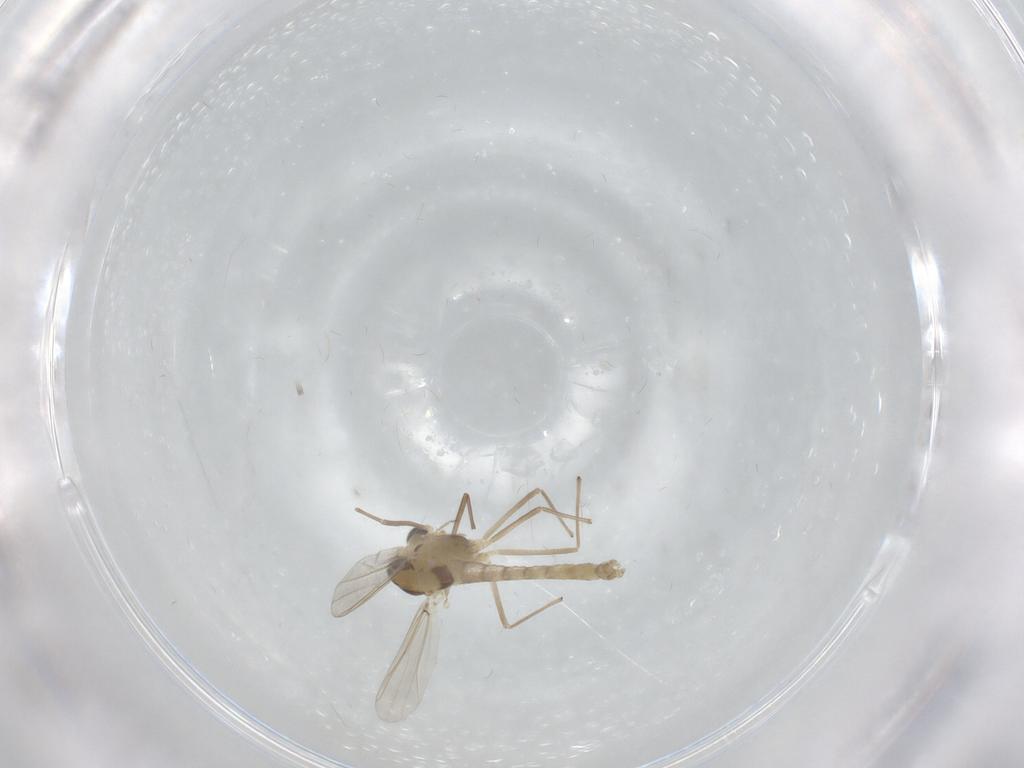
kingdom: Animalia
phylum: Arthropoda
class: Insecta
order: Diptera
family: Chironomidae
